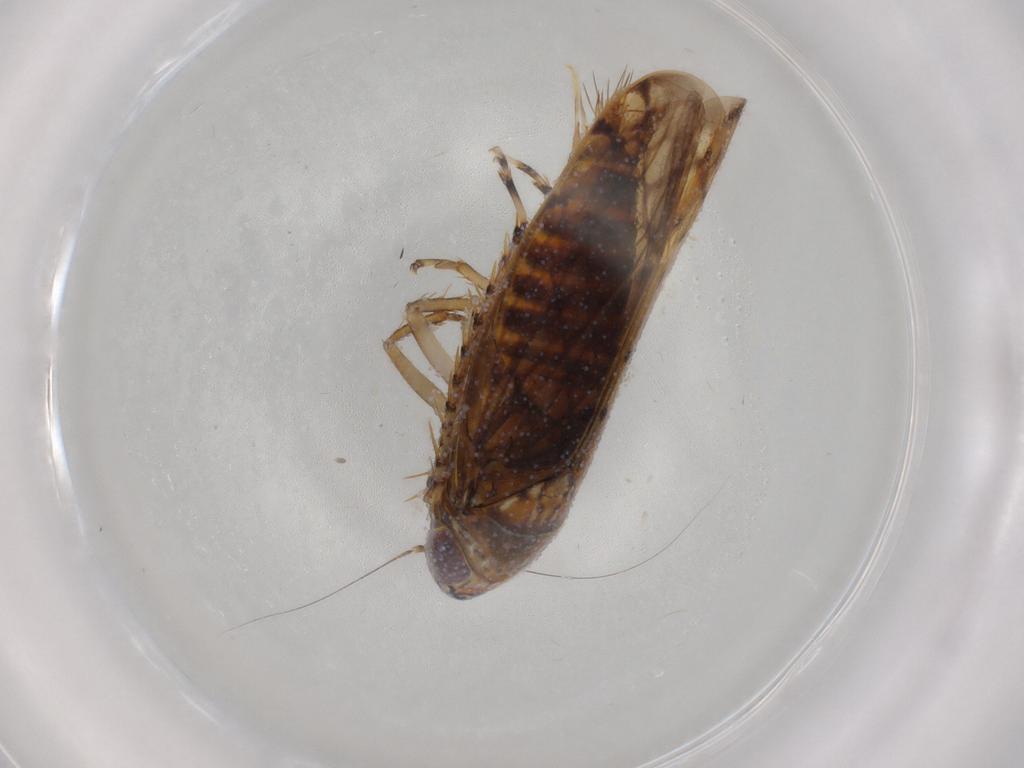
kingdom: Animalia
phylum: Arthropoda
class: Insecta
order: Hemiptera
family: Cicadellidae
